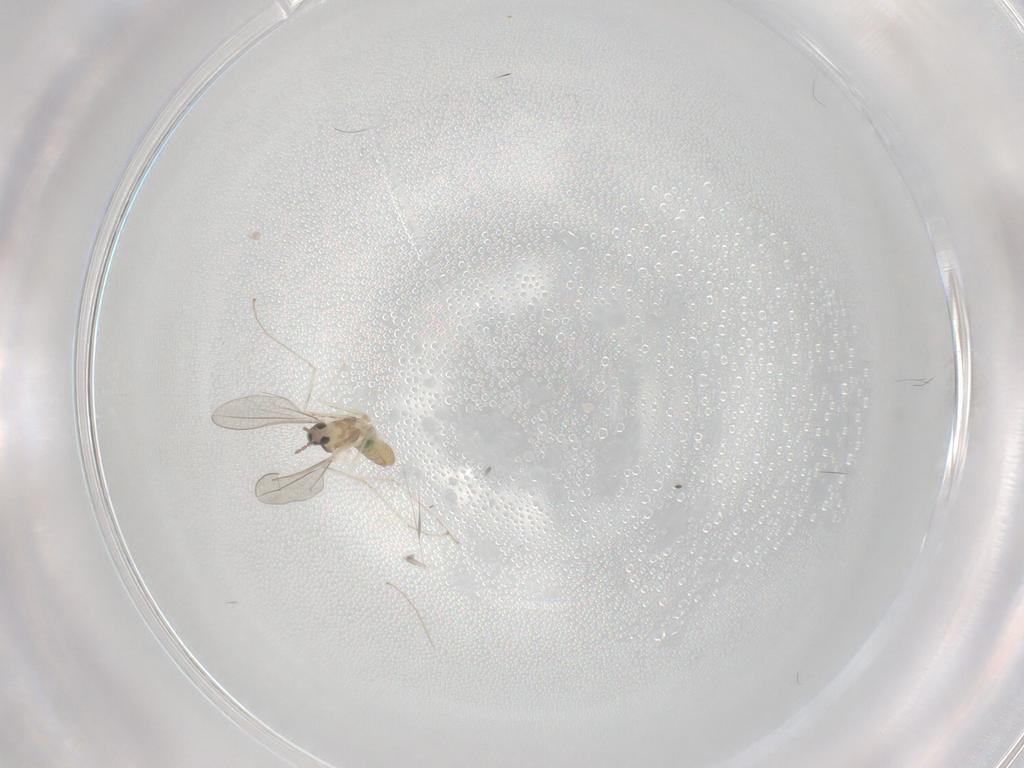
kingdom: Animalia
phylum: Arthropoda
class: Insecta
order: Diptera
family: Cecidomyiidae
